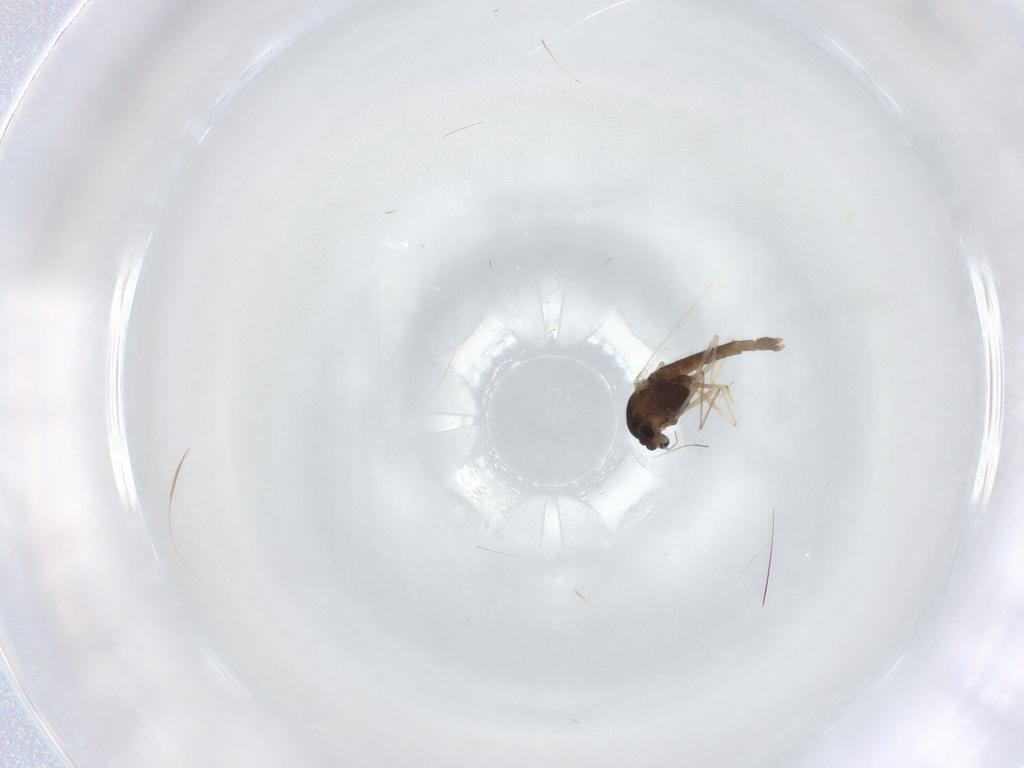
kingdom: Animalia
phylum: Arthropoda
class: Insecta
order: Diptera
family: Chironomidae
